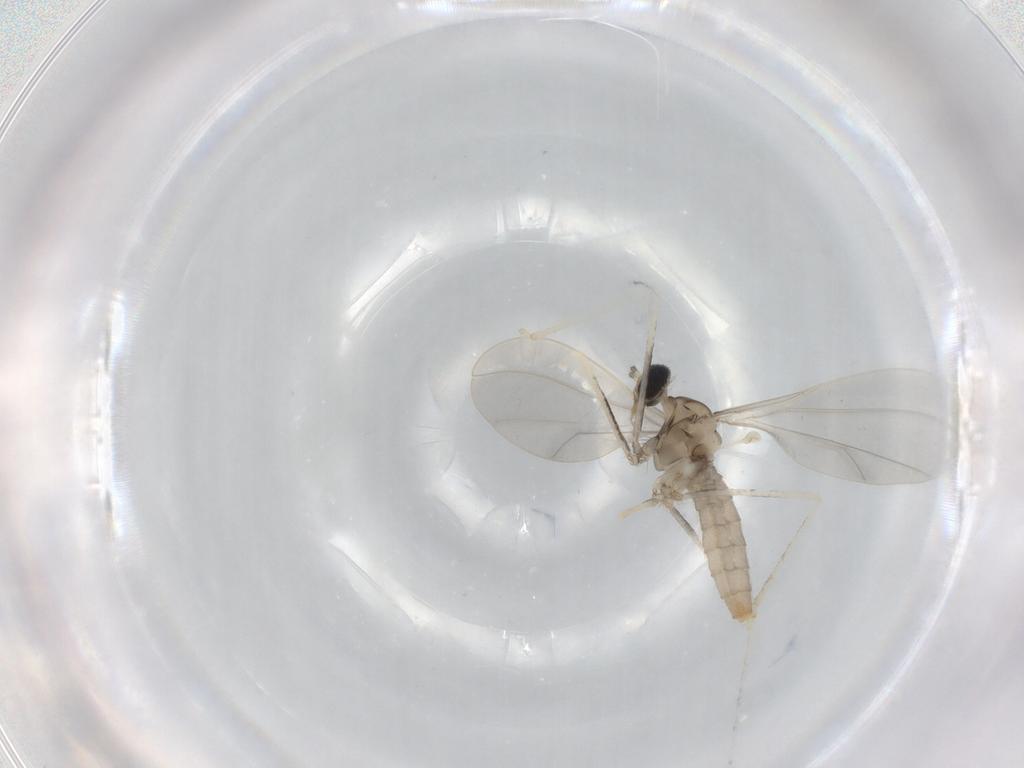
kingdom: Animalia
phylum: Arthropoda
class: Insecta
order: Diptera
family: Cecidomyiidae
